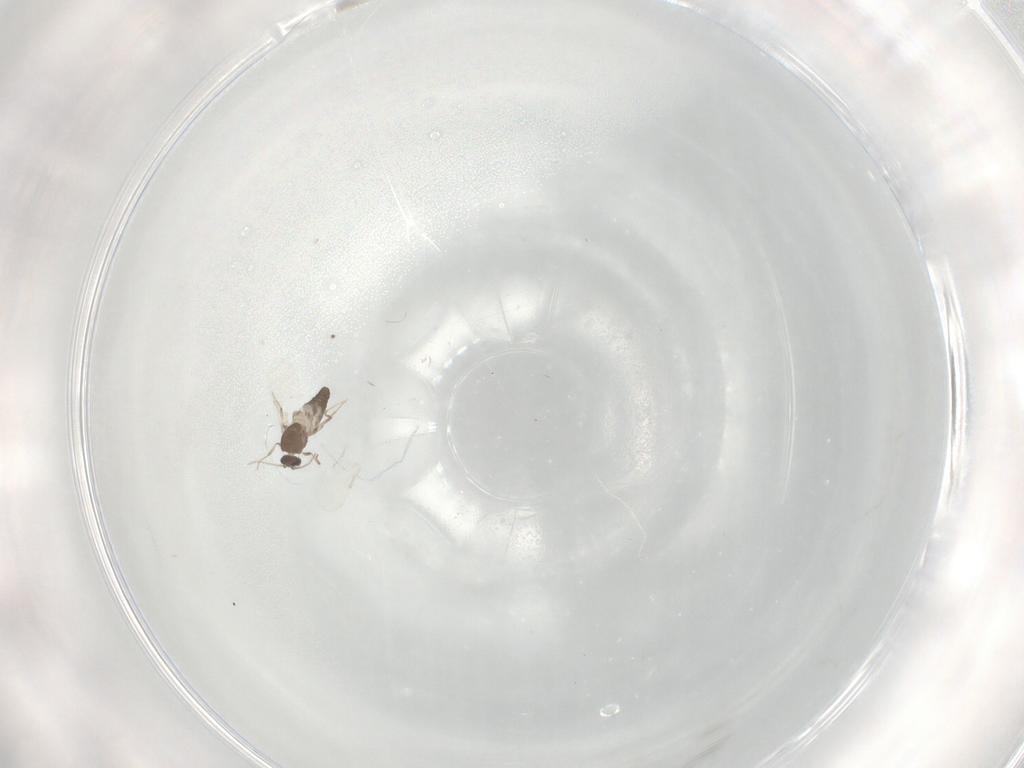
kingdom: Animalia
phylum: Arthropoda
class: Insecta
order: Diptera
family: Ceratopogonidae
